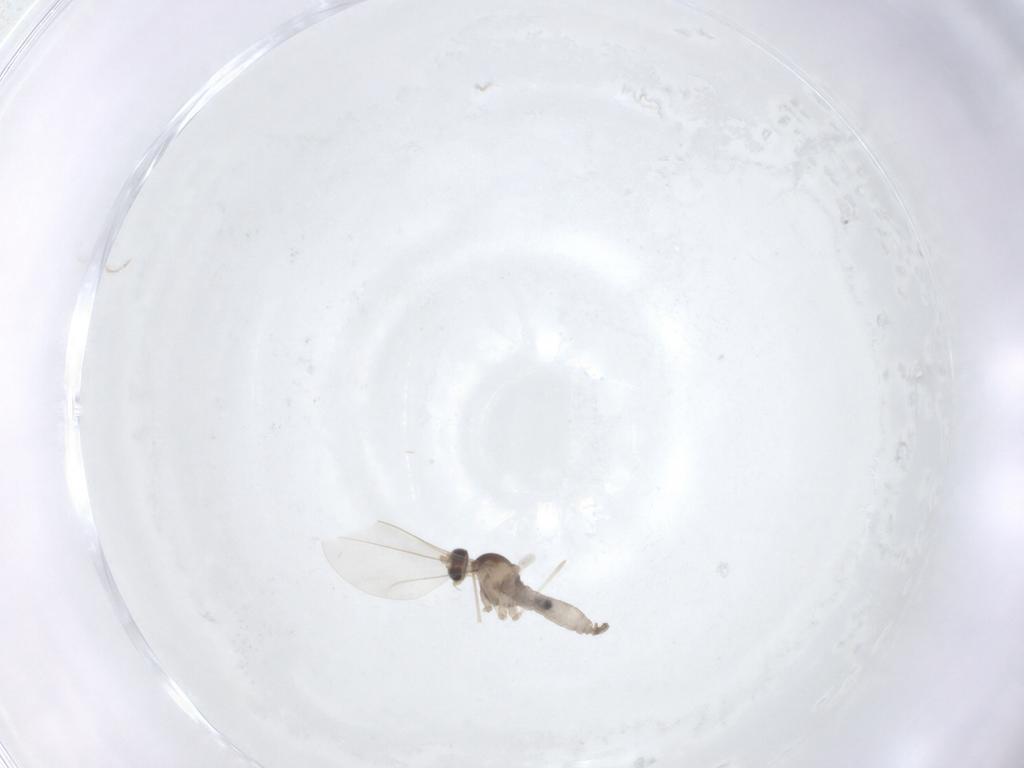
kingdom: Animalia
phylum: Arthropoda
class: Insecta
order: Diptera
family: Cecidomyiidae
